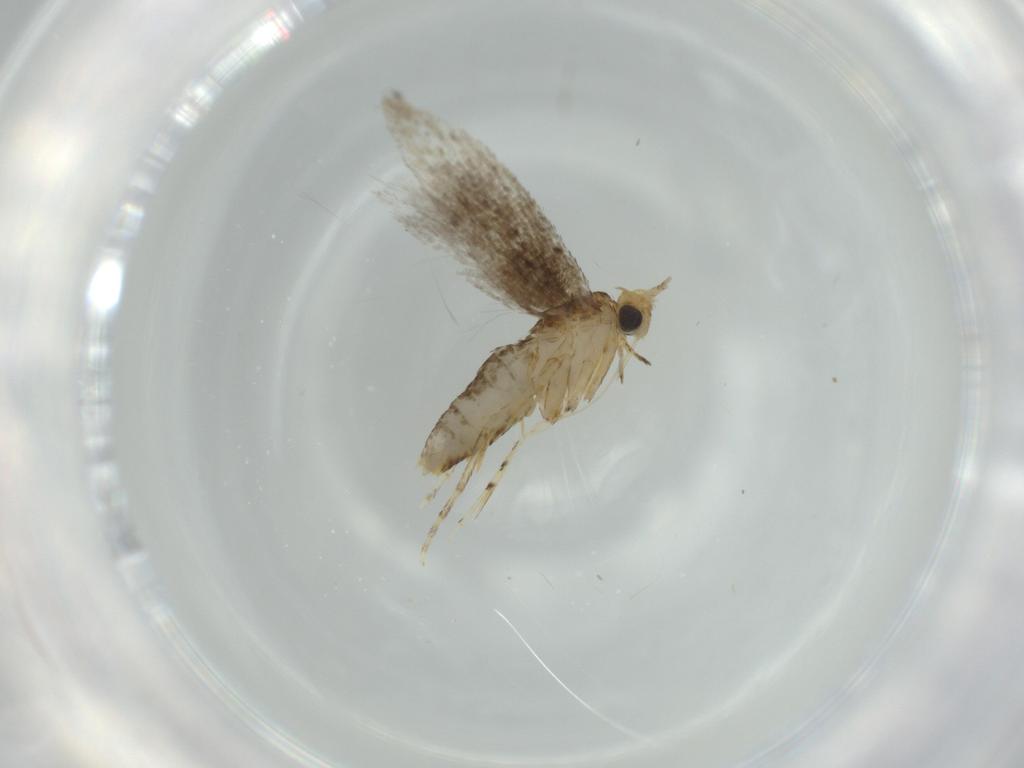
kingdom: Animalia
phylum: Arthropoda
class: Insecta
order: Lepidoptera
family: Argyresthiidae
